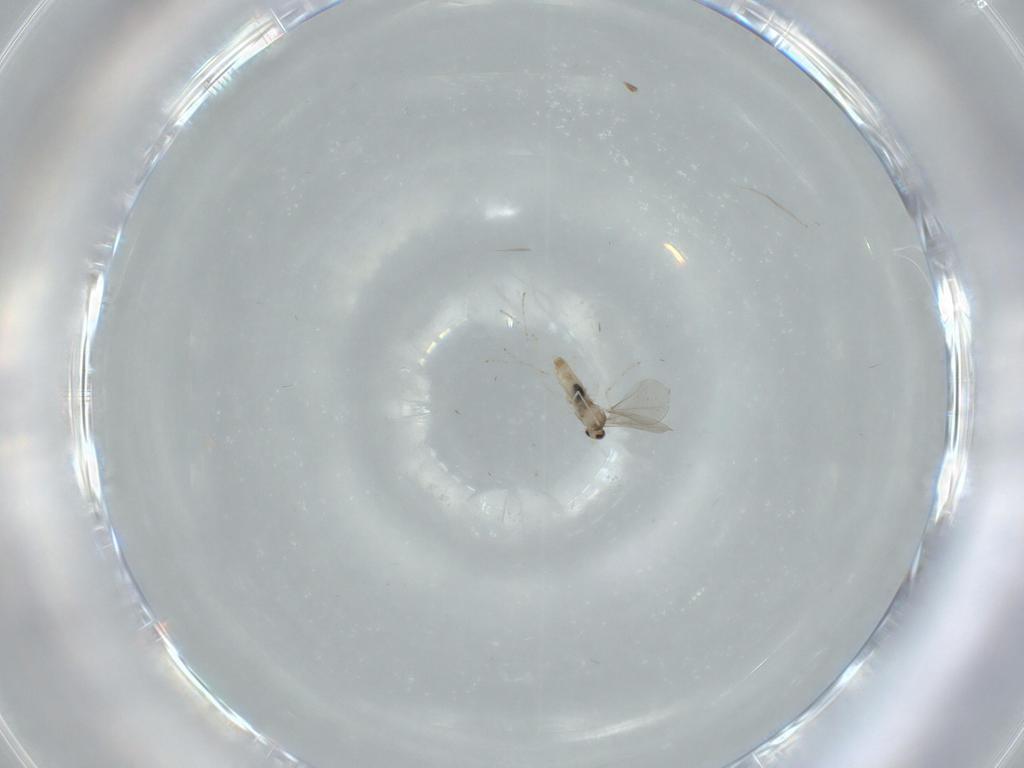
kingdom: Animalia
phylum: Arthropoda
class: Insecta
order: Diptera
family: Cecidomyiidae
